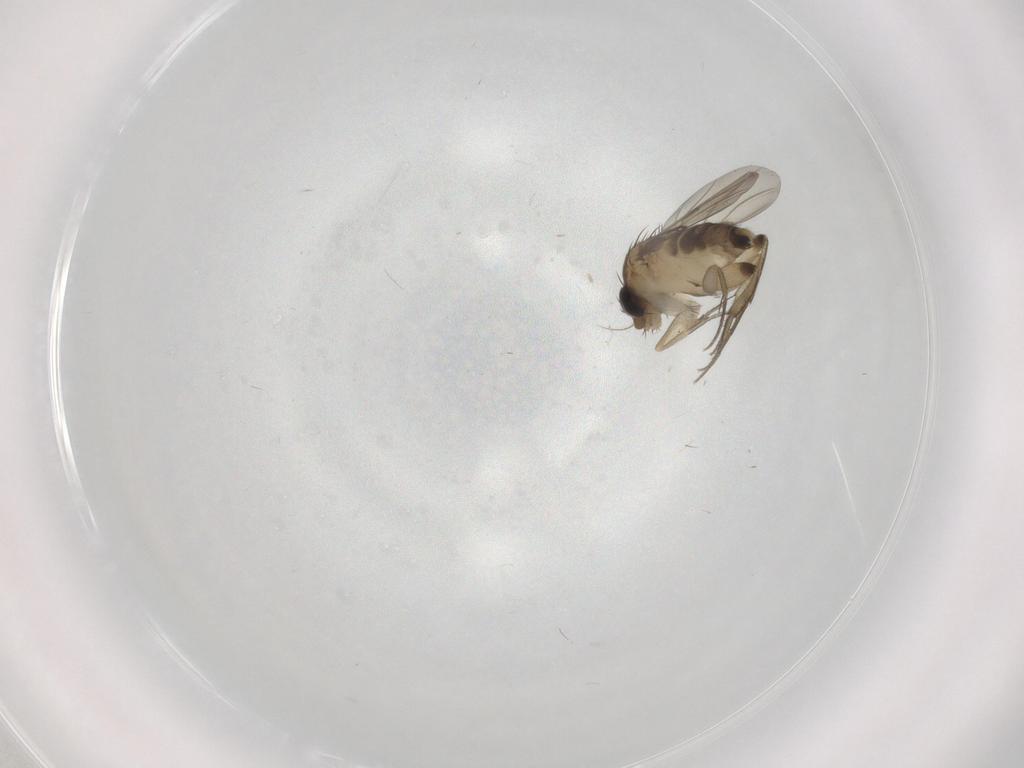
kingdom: Animalia
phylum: Arthropoda
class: Insecta
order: Diptera
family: Phoridae
